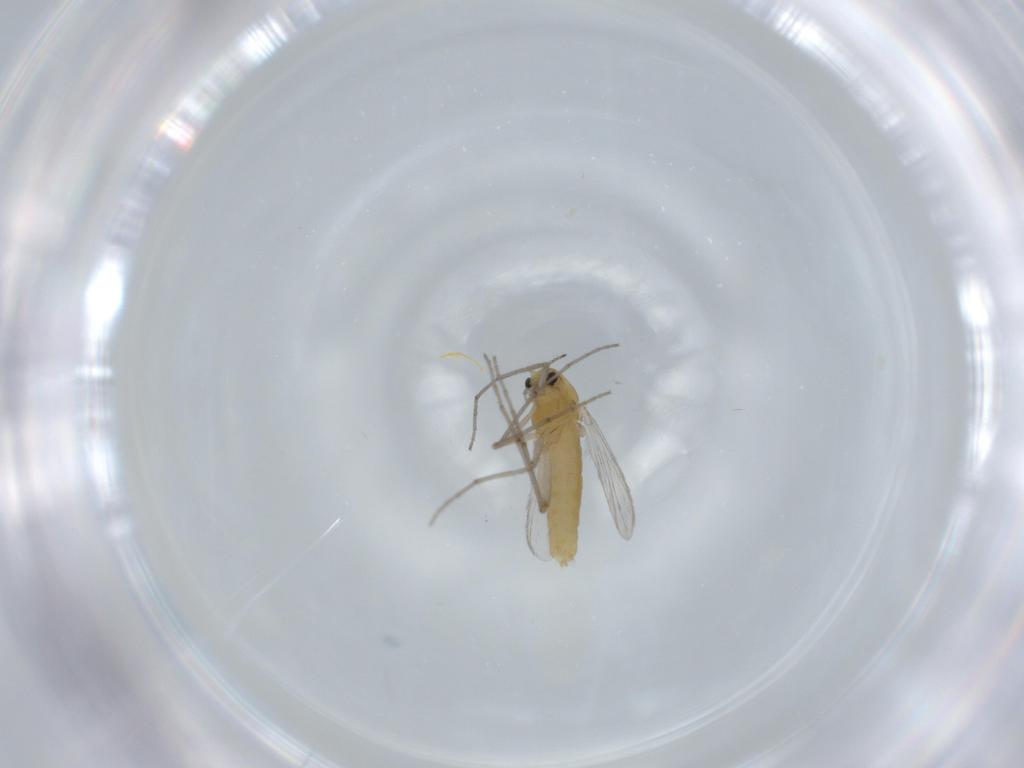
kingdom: Animalia
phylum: Arthropoda
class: Insecta
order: Diptera
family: Chironomidae
